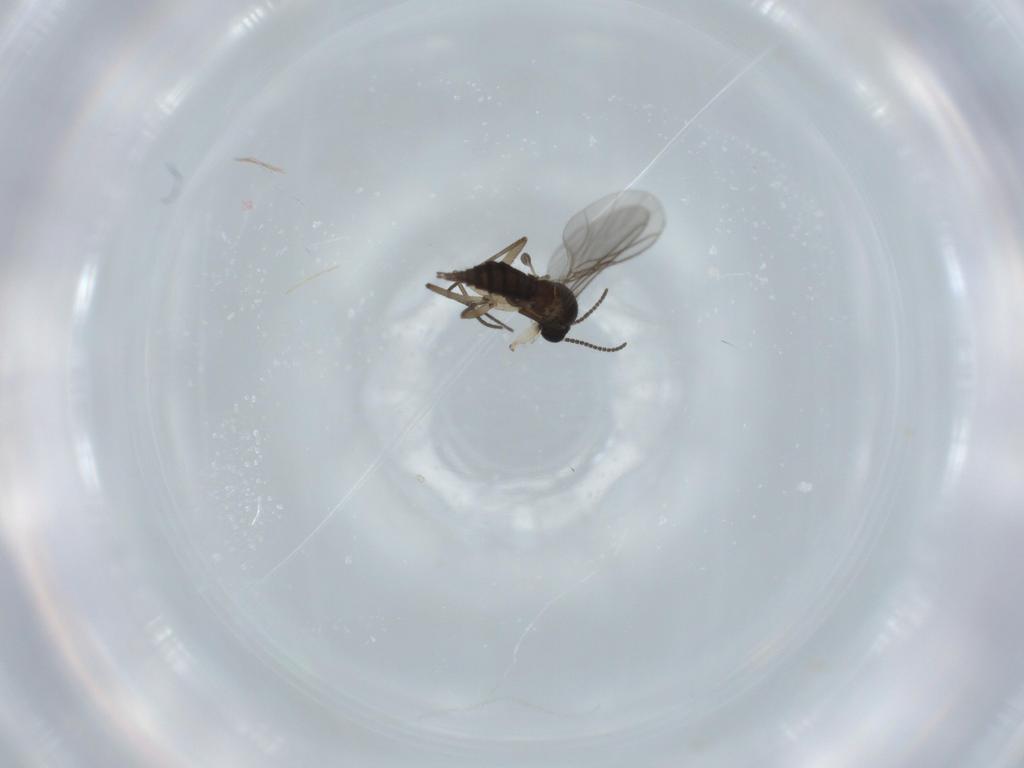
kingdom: Animalia
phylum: Arthropoda
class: Insecta
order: Diptera
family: Sciaridae
